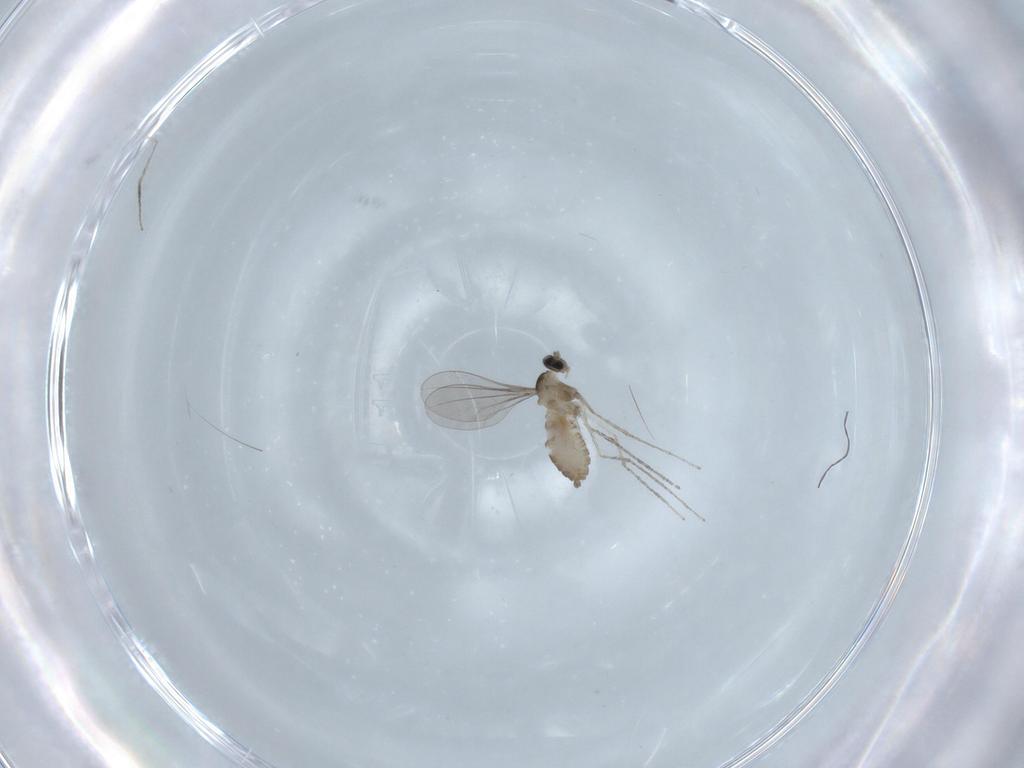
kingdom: Animalia
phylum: Arthropoda
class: Insecta
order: Diptera
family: Cecidomyiidae
